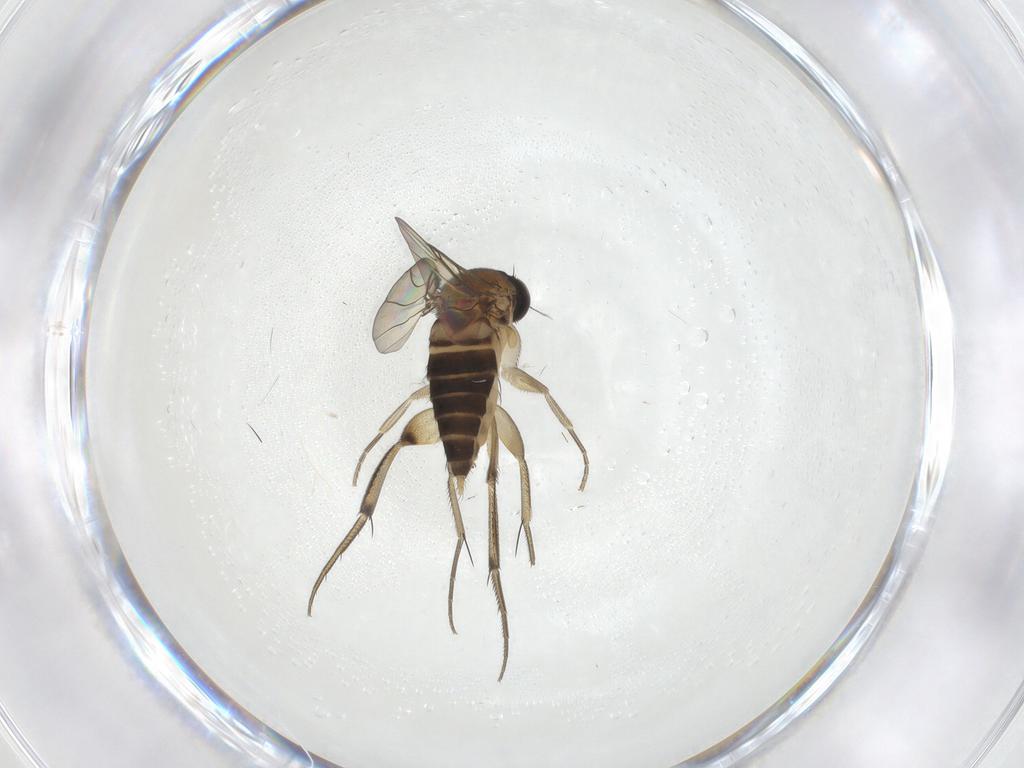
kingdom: Animalia
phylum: Arthropoda
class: Insecta
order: Diptera
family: Phoridae
